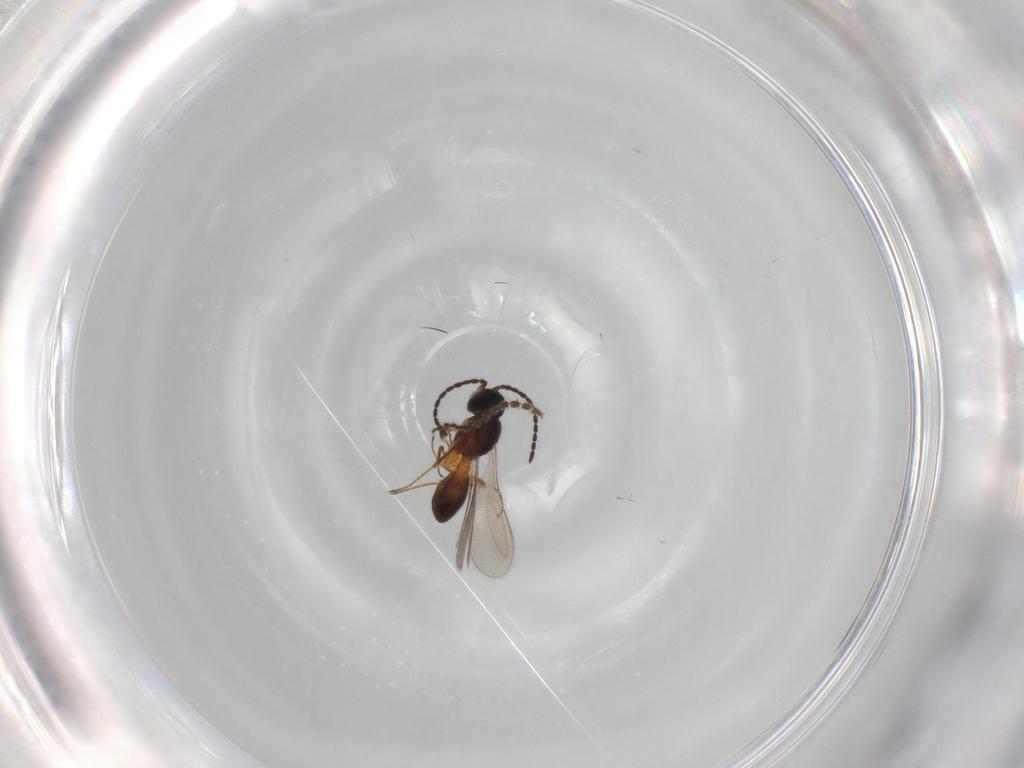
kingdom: Animalia
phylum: Arthropoda
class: Insecta
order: Hymenoptera
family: Scelionidae
